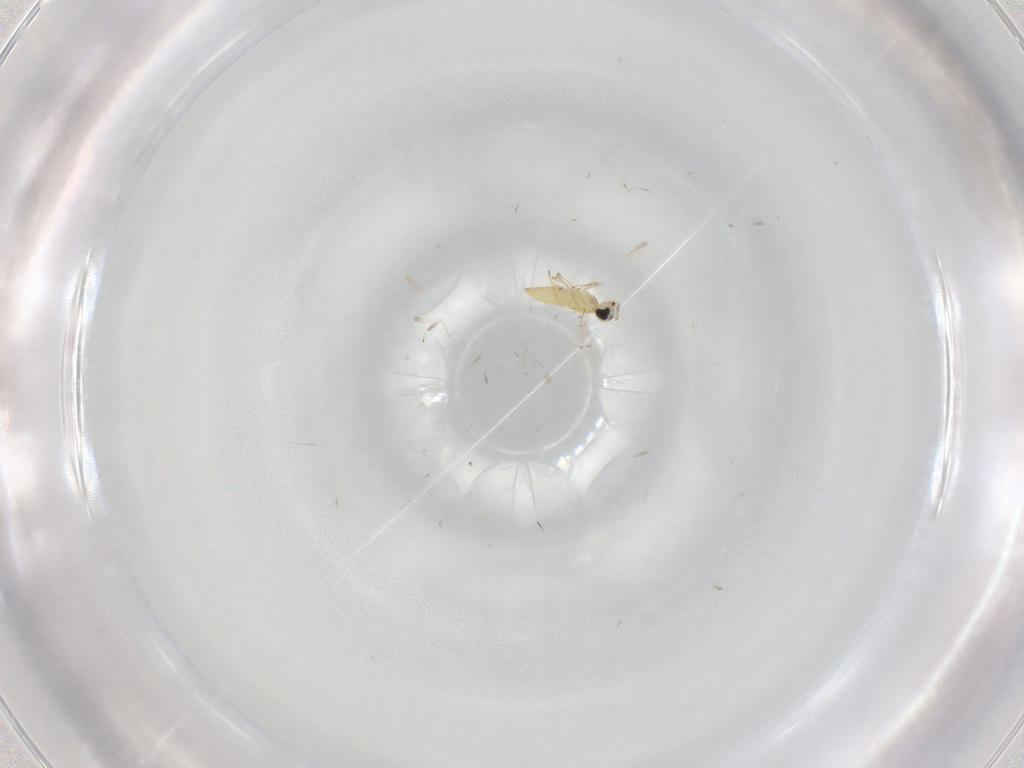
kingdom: Animalia
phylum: Arthropoda
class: Insecta
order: Hymenoptera
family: Trichogrammatidae
